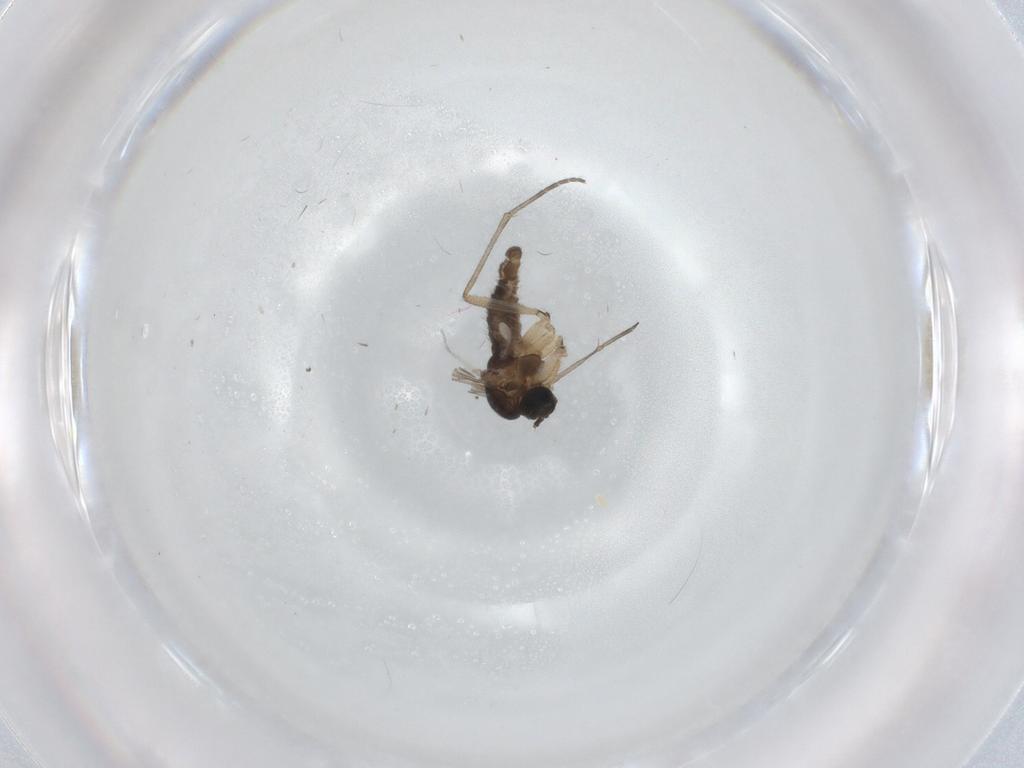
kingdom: Animalia
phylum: Arthropoda
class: Insecta
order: Diptera
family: Sciaridae
